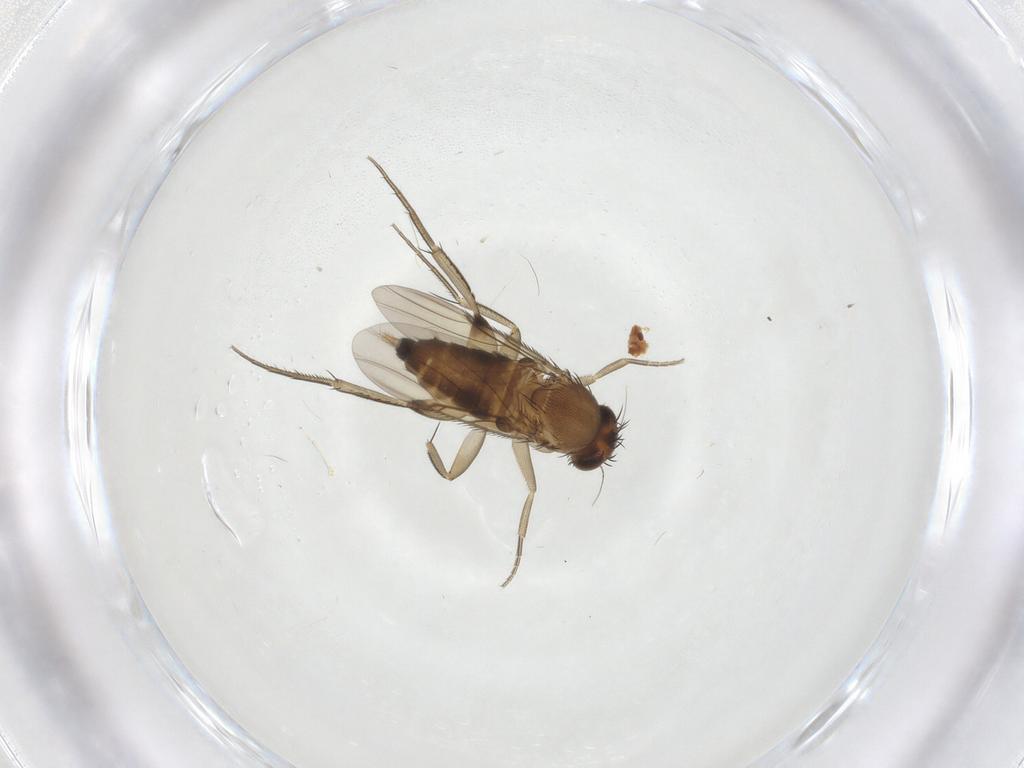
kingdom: Animalia
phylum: Arthropoda
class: Insecta
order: Diptera
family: Phoridae
